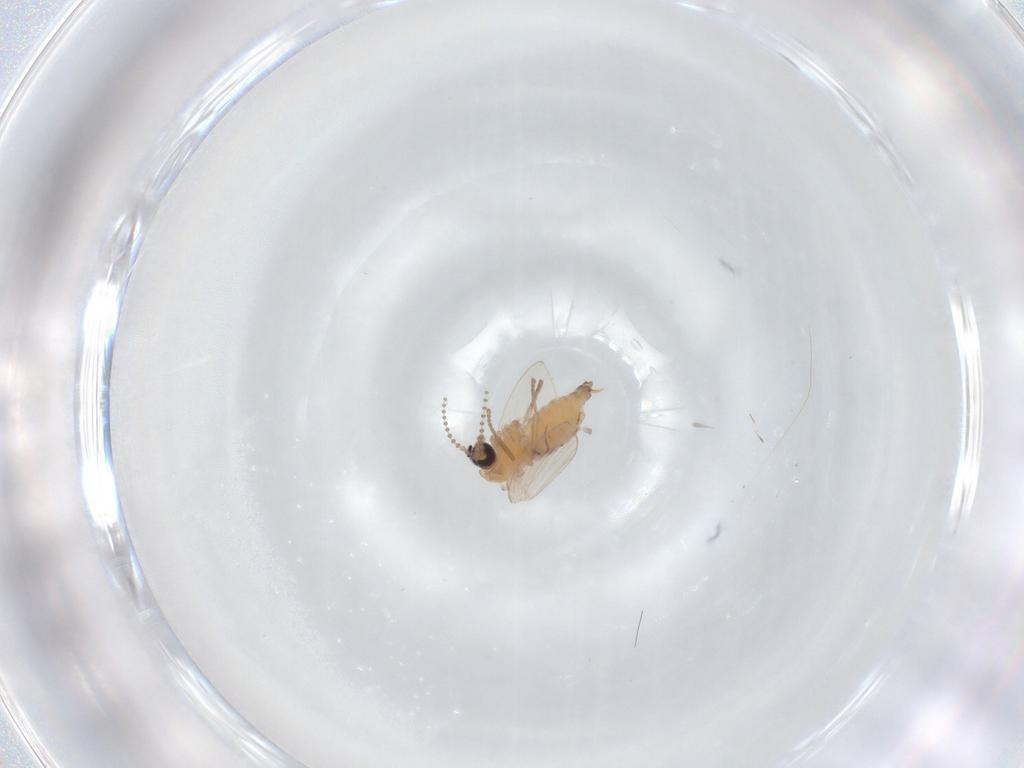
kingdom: Animalia
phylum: Arthropoda
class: Insecta
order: Diptera
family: Psychodidae
